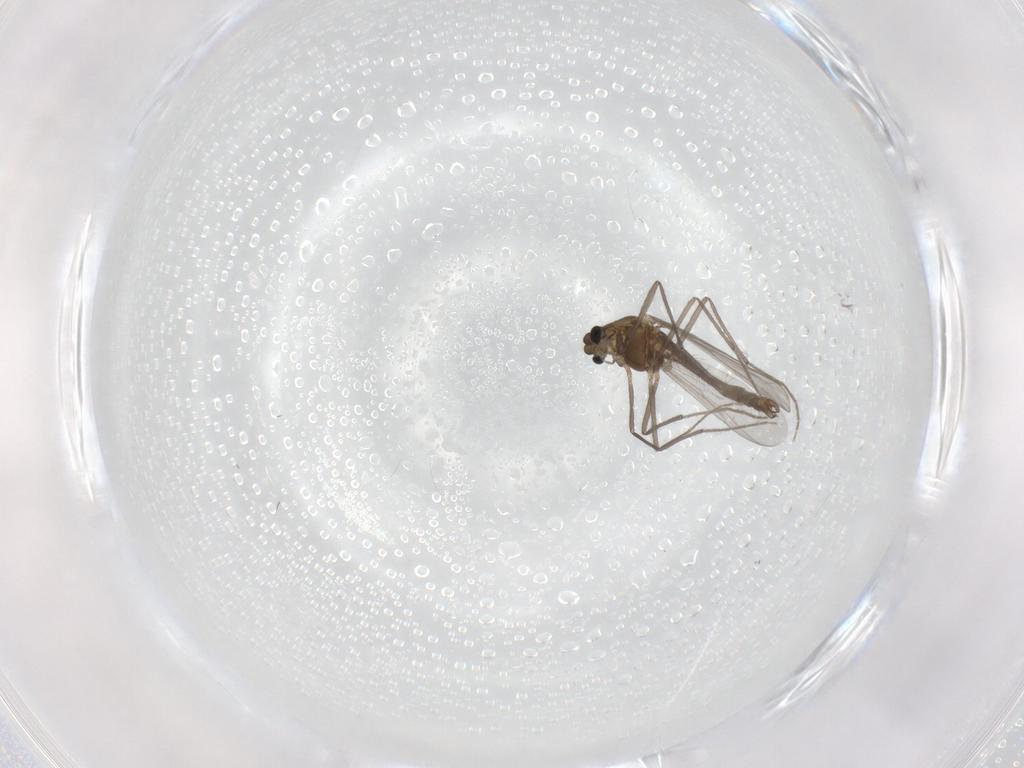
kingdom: Animalia
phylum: Arthropoda
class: Insecta
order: Diptera
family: Chironomidae
